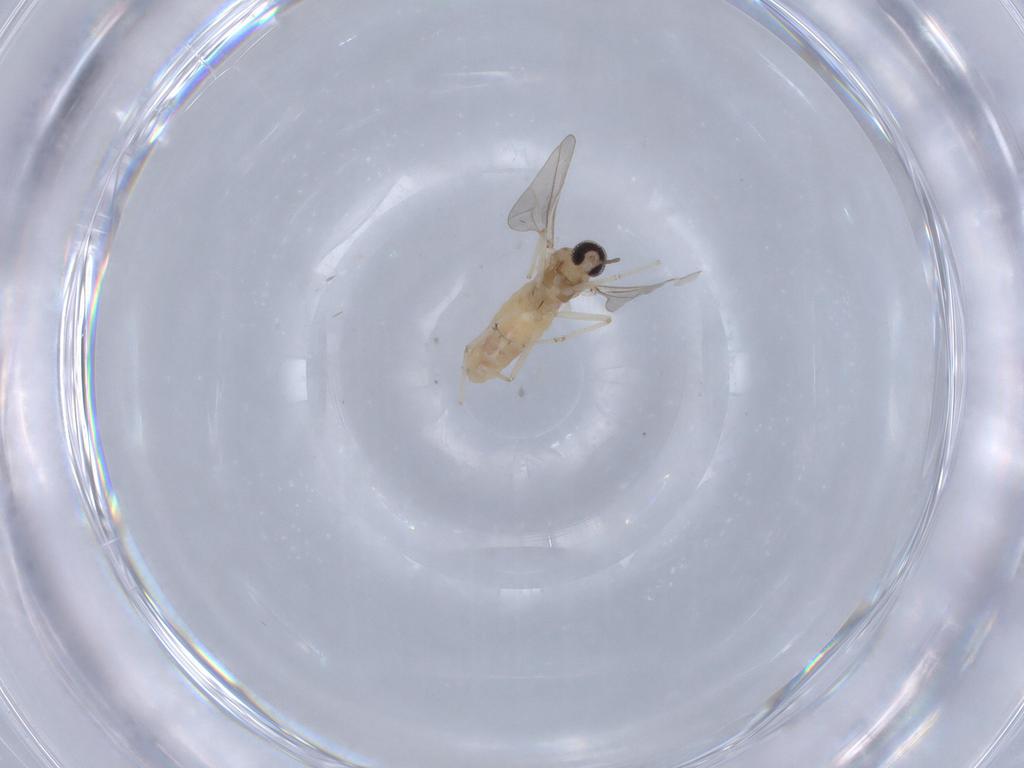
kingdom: Animalia
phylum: Arthropoda
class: Insecta
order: Diptera
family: Cecidomyiidae
